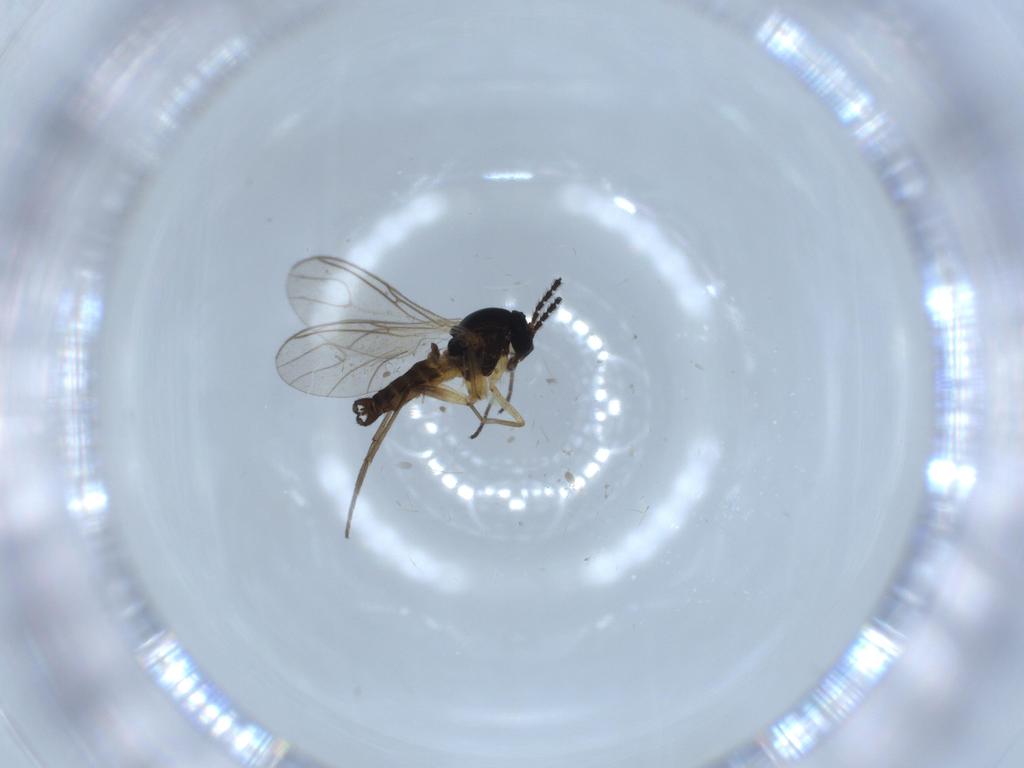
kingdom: Animalia
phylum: Arthropoda
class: Insecta
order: Diptera
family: Sciaridae
